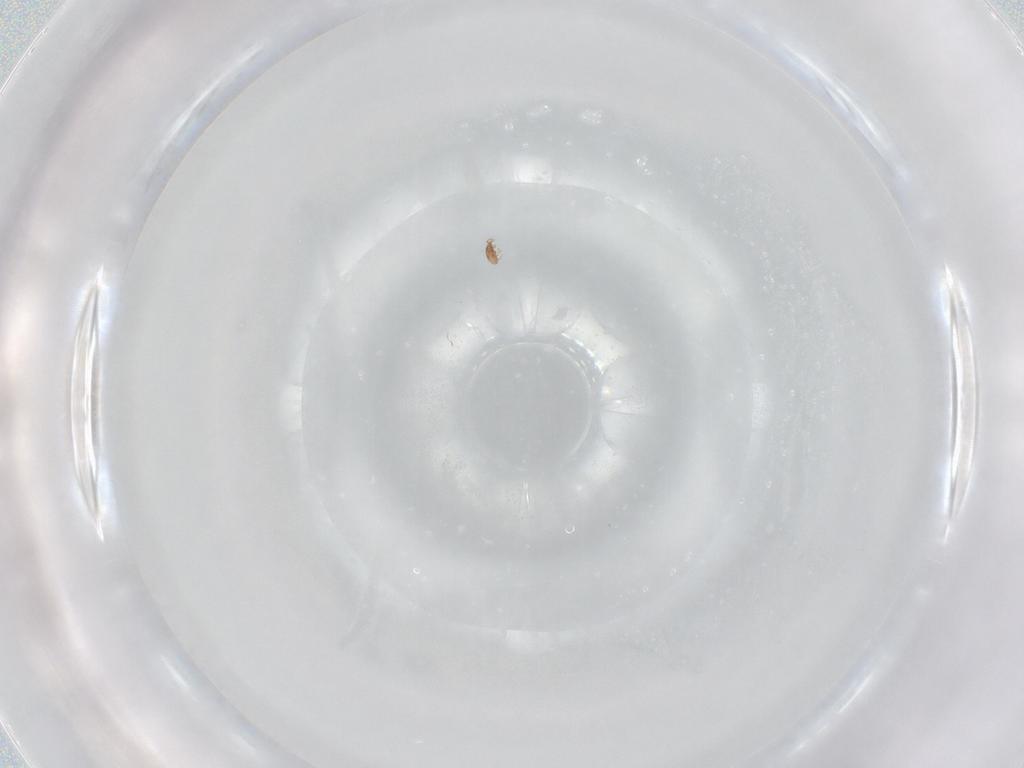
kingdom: Animalia
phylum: Arthropoda
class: Arachnida
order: Sarcoptiformes
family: Oppiidae
